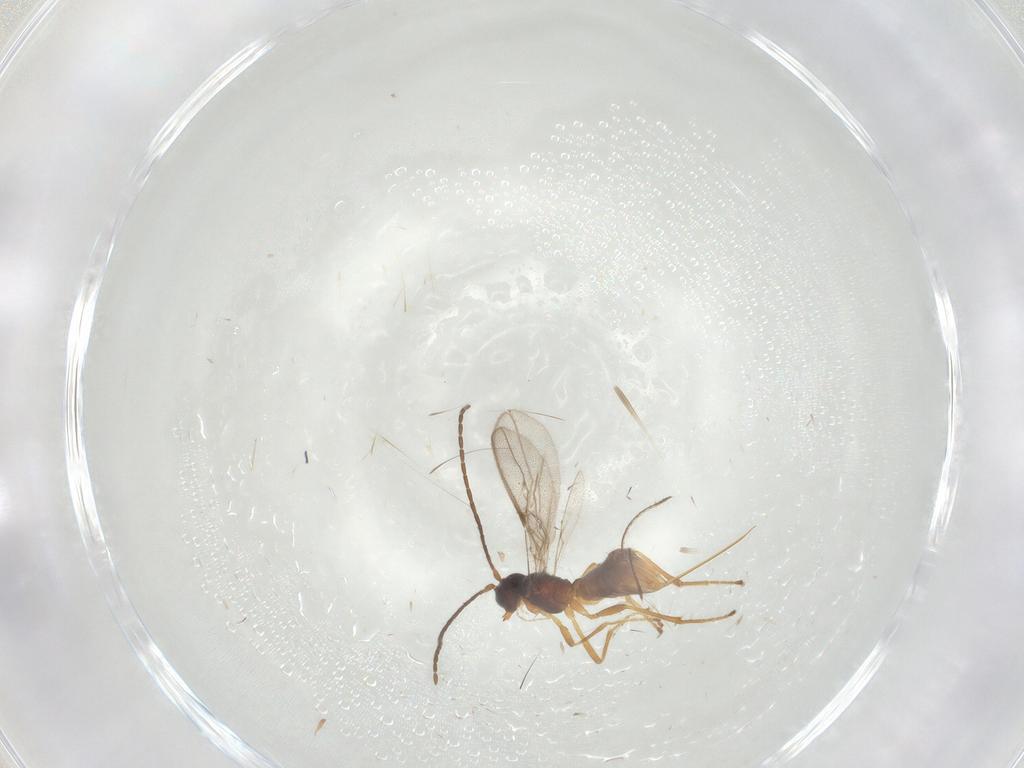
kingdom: Animalia
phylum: Arthropoda
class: Insecta
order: Hymenoptera
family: Braconidae
